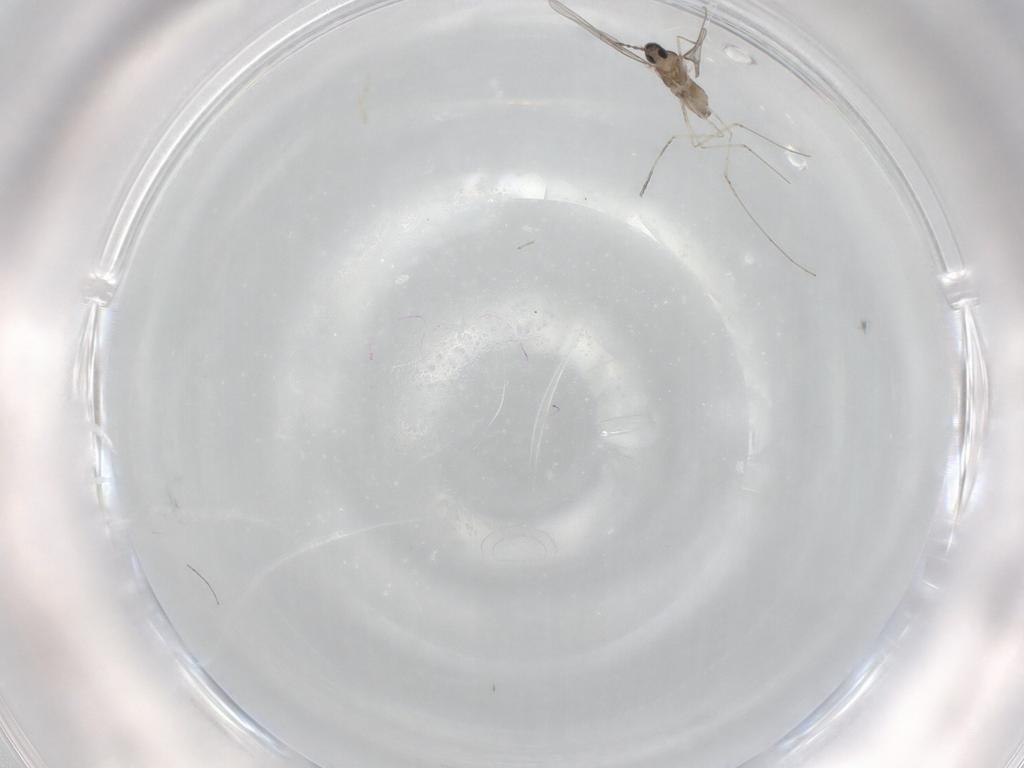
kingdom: Animalia
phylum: Arthropoda
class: Insecta
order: Diptera
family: Cecidomyiidae
